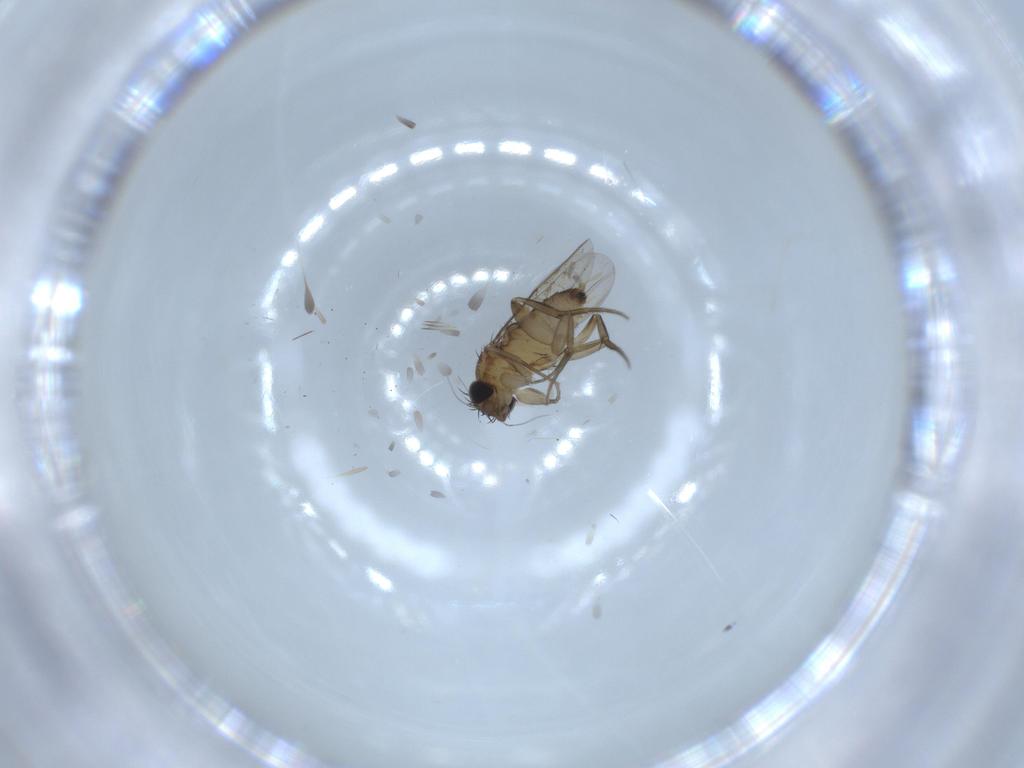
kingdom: Animalia
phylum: Arthropoda
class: Insecta
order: Diptera
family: Phoridae
